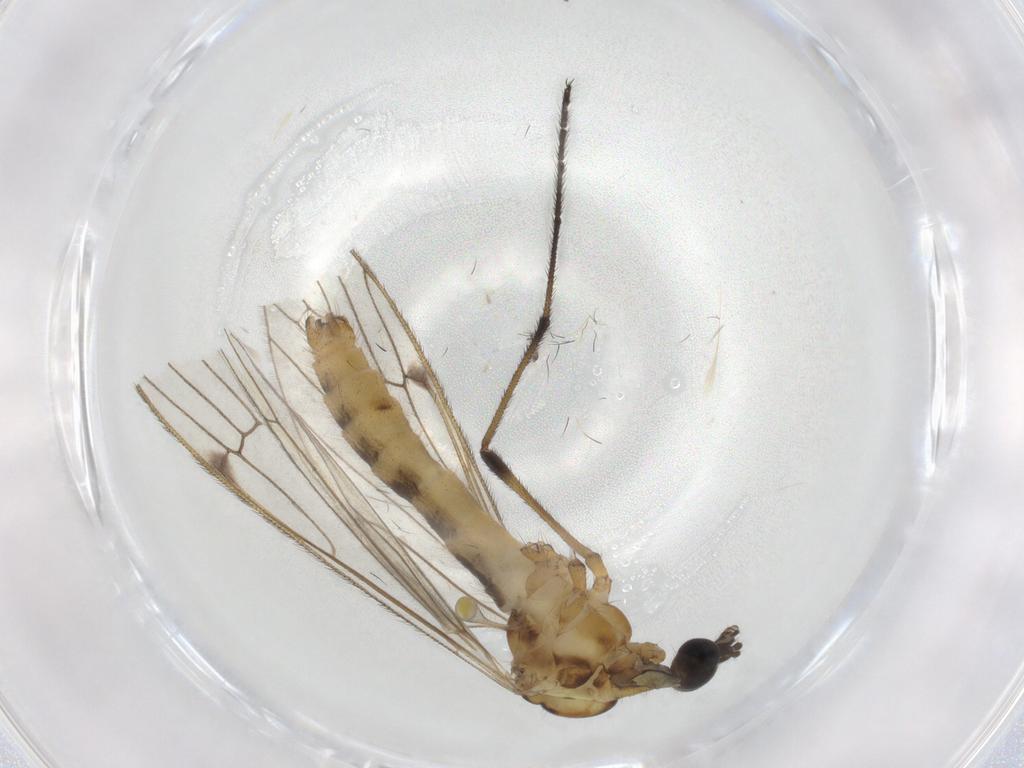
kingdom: Animalia
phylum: Arthropoda
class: Insecta
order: Diptera
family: Limoniidae
